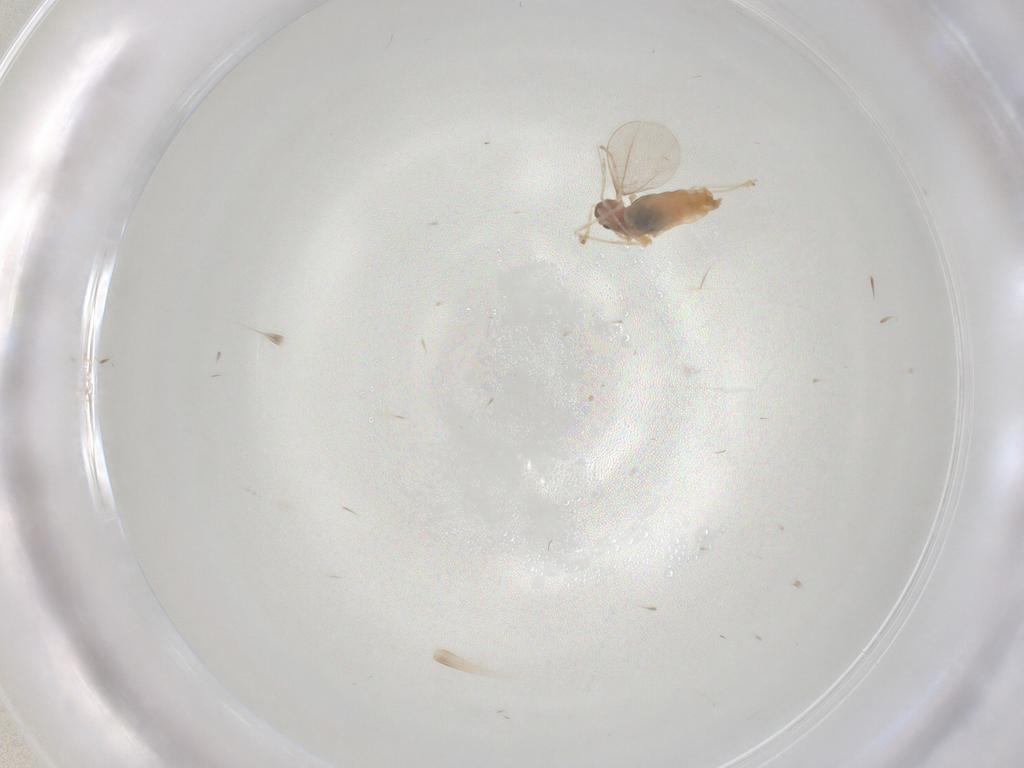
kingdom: Animalia
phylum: Arthropoda
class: Insecta
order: Diptera
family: Cecidomyiidae
